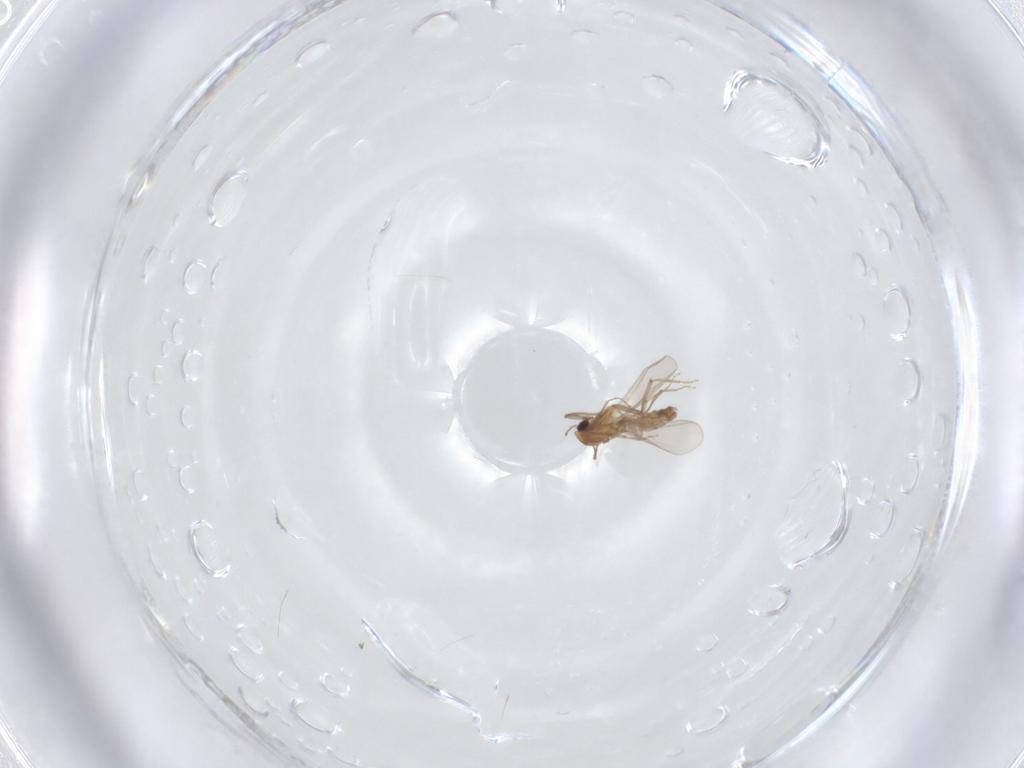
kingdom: Animalia
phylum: Arthropoda
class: Insecta
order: Diptera
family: Chironomidae
